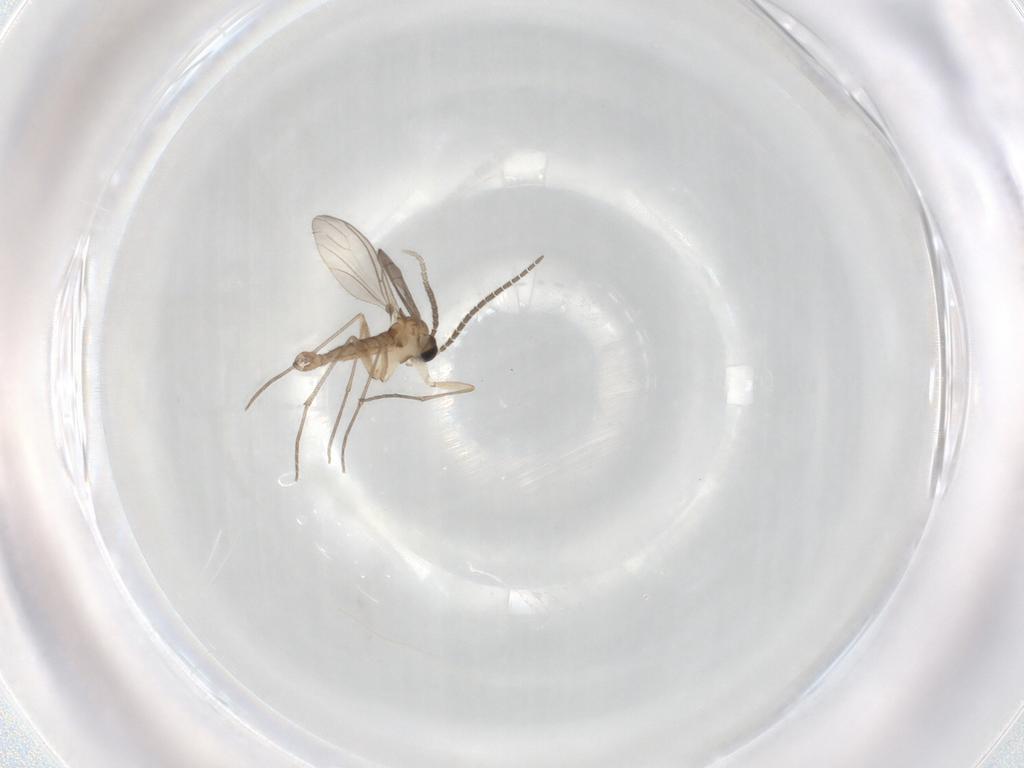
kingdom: Animalia
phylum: Arthropoda
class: Insecta
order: Diptera
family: Sciaridae
